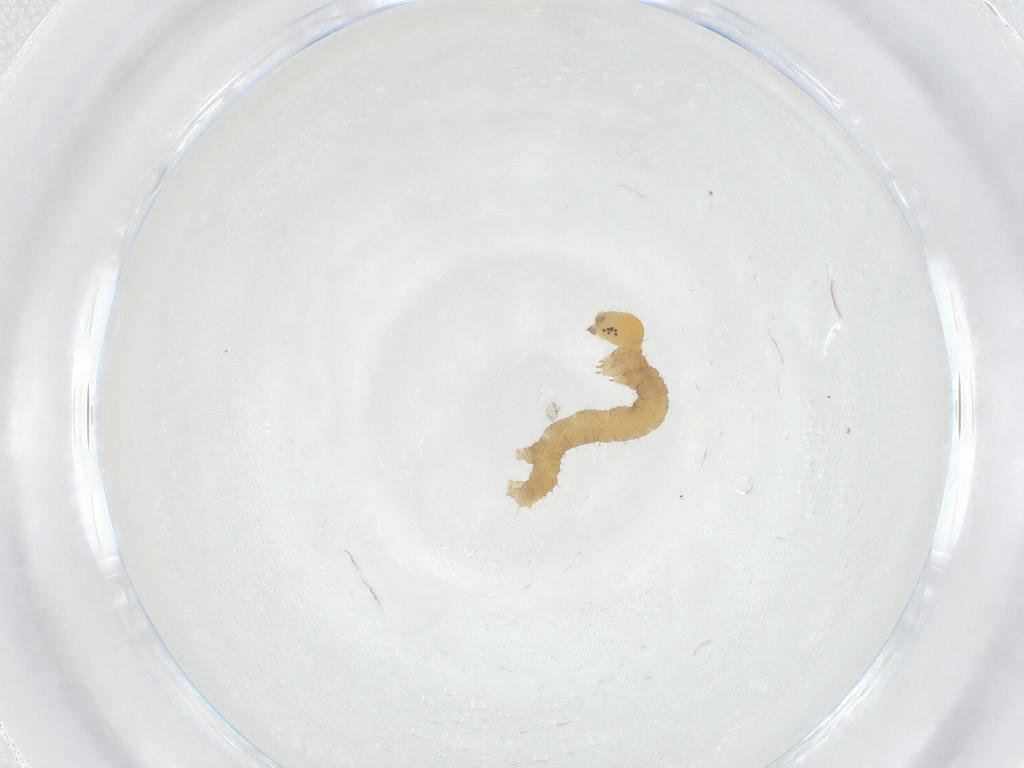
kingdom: Animalia
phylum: Arthropoda
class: Insecta
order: Lepidoptera
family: Geometridae
